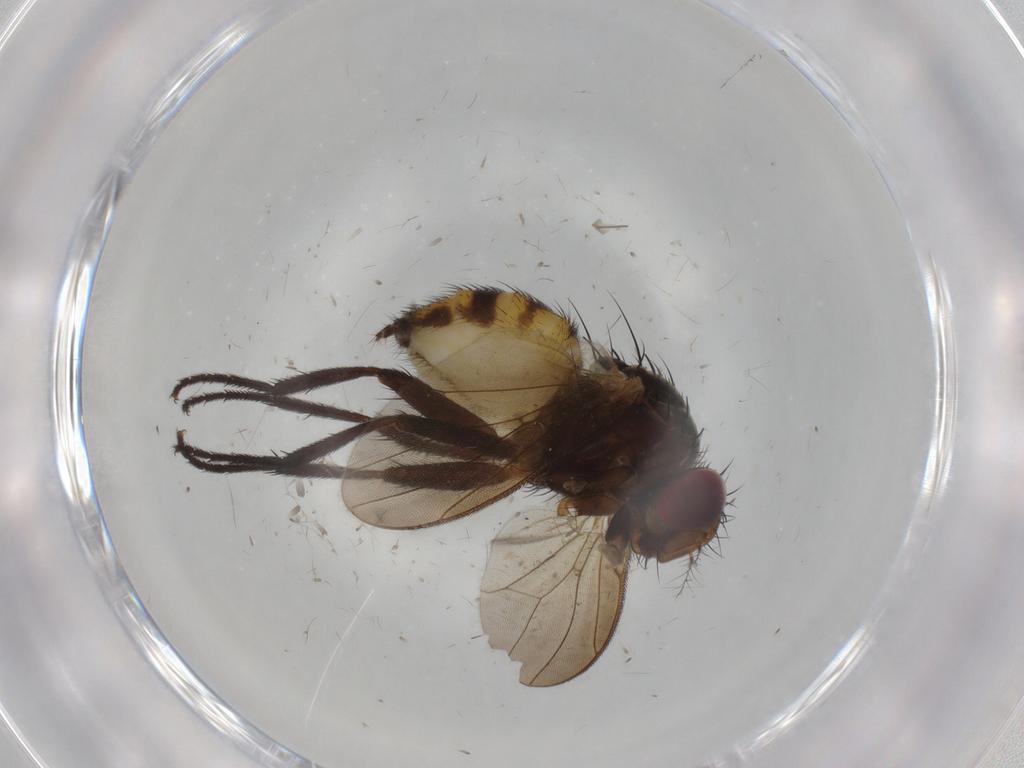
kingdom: Animalia
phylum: Arthropoda
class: Insecta
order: Diptera
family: Anthomyiidae
